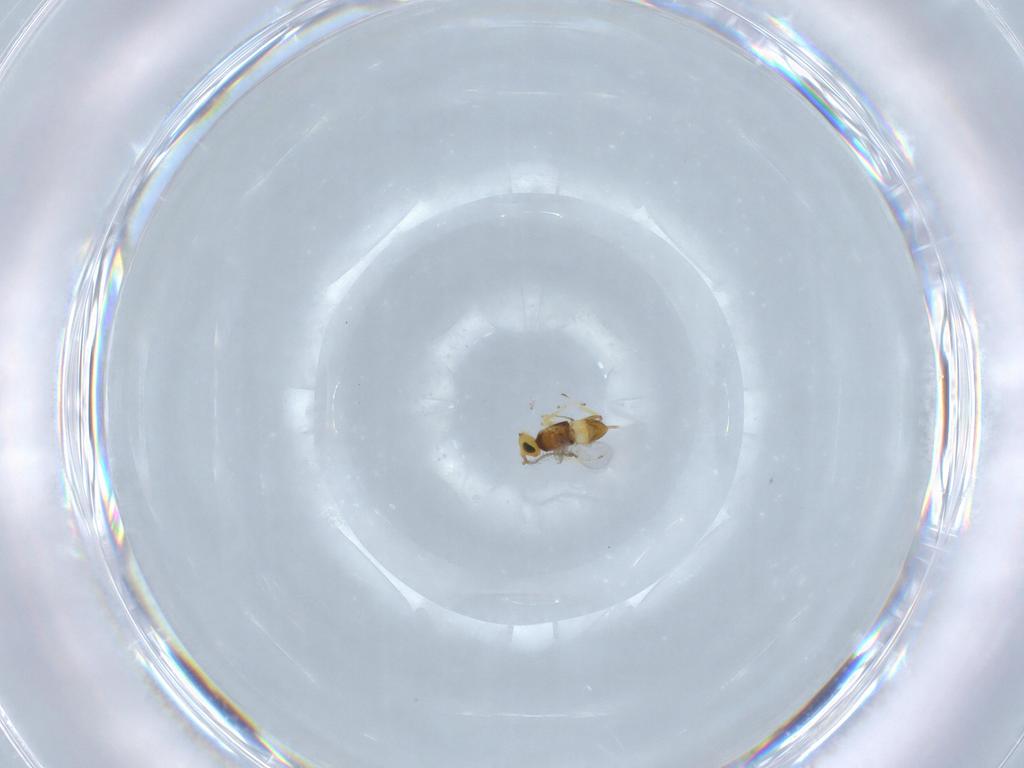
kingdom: Animalia
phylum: Arthropoda
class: Insecta
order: Hymenoptera
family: Encyrtidae
